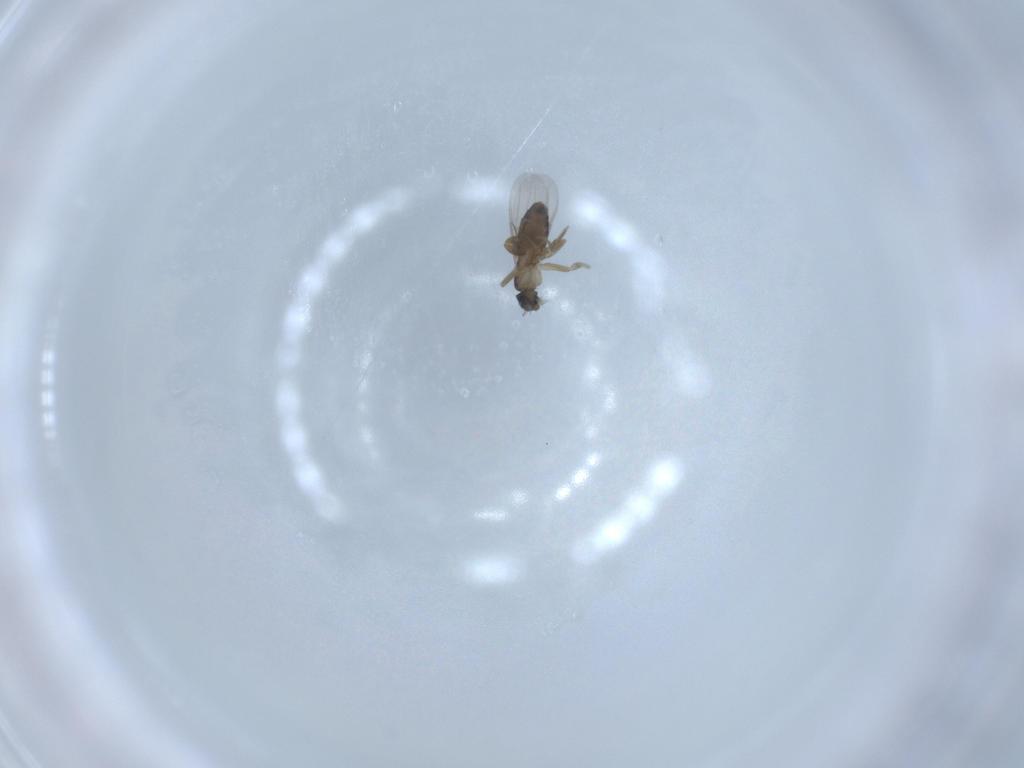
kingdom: Animalia
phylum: Arthropoda
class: Insecta
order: Diptera
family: Phoridae
